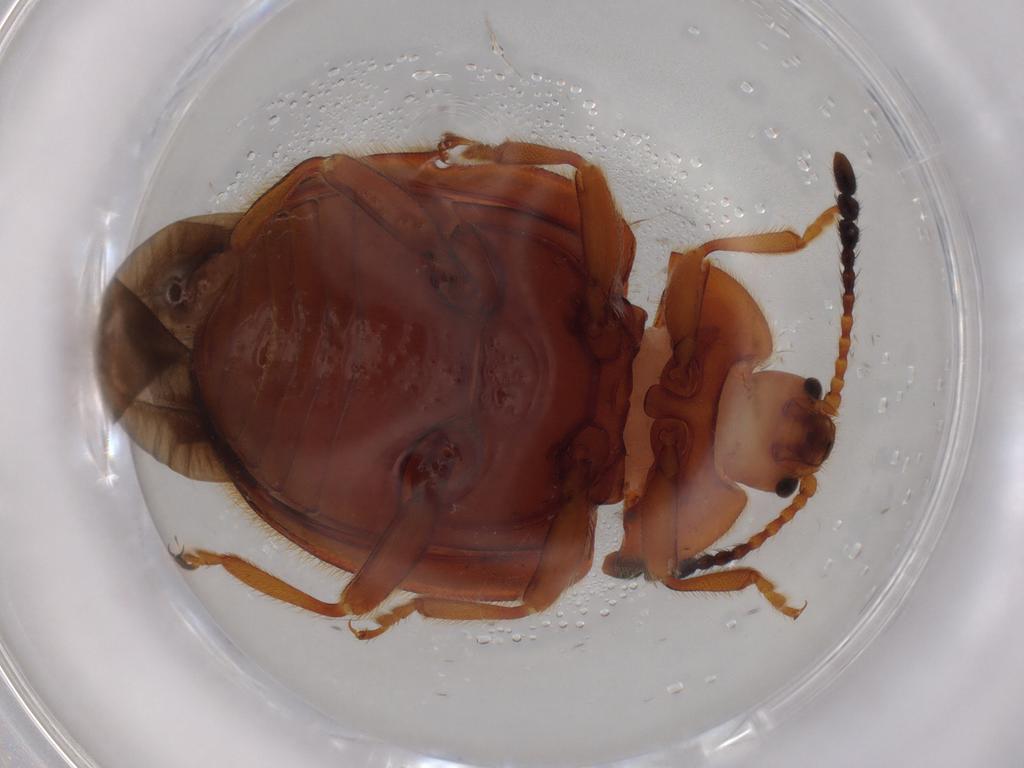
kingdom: Animalia
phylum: Arthropoda
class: Insecta
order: Coleoptera
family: Endomychidae
